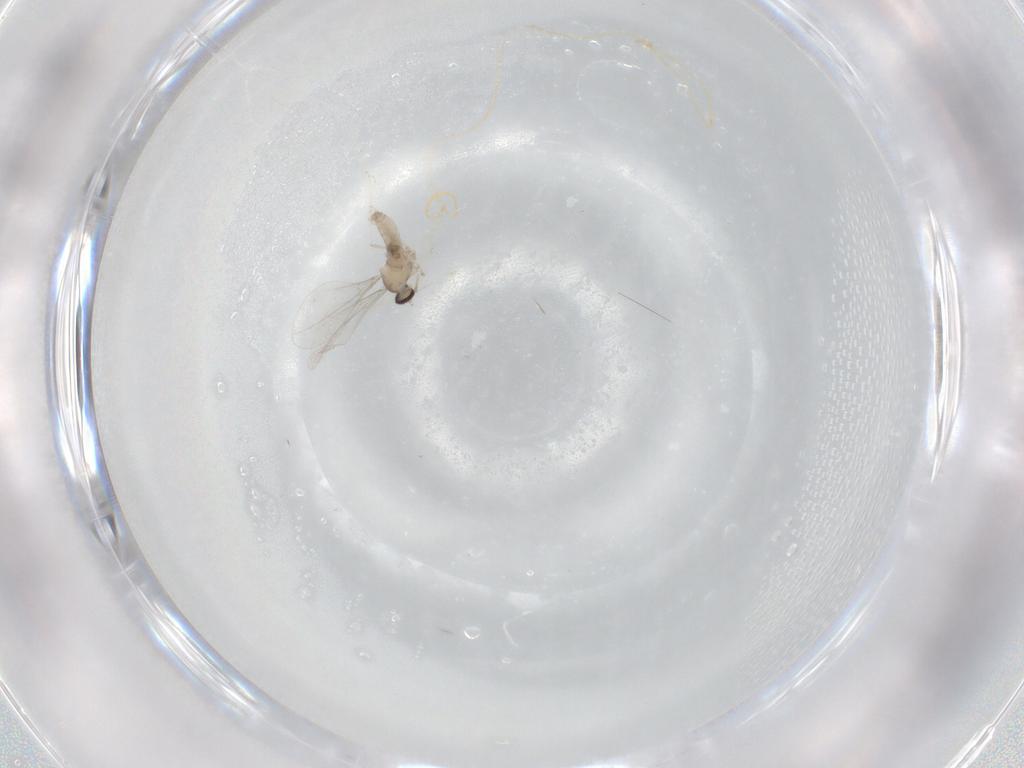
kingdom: Animalia
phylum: Arthropoda
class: Insecta
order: Diptera
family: Cecidomyiidae
